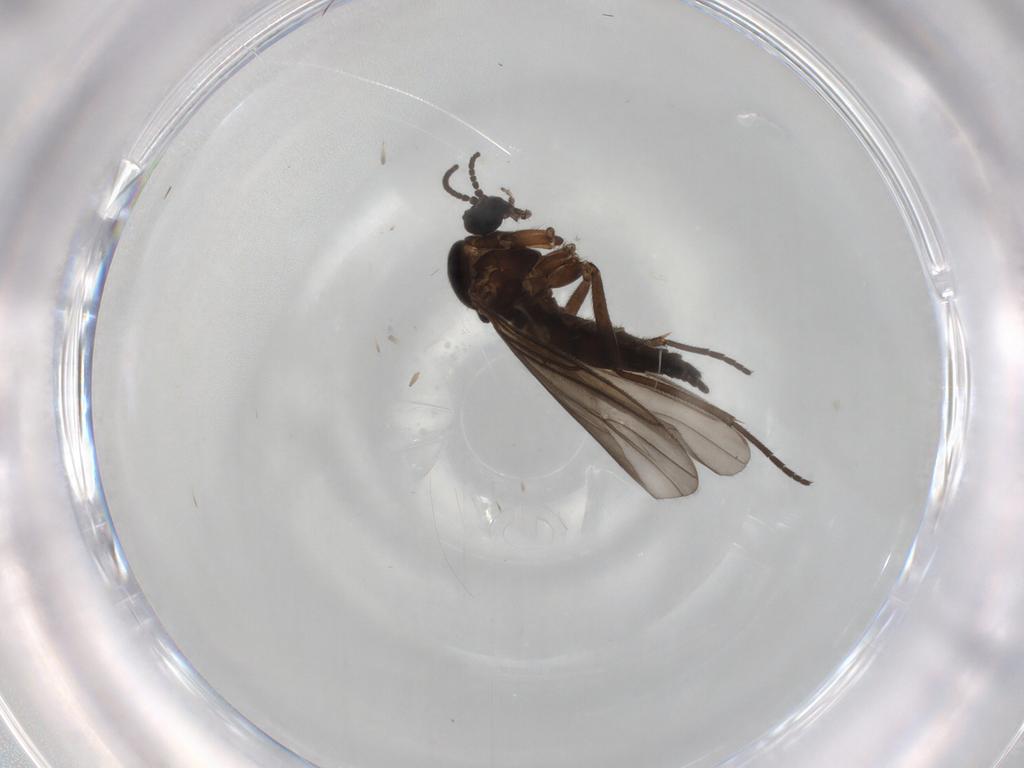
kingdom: Animalia
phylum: Arthropoda
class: Insecta
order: Diptera
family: Sciaridae
